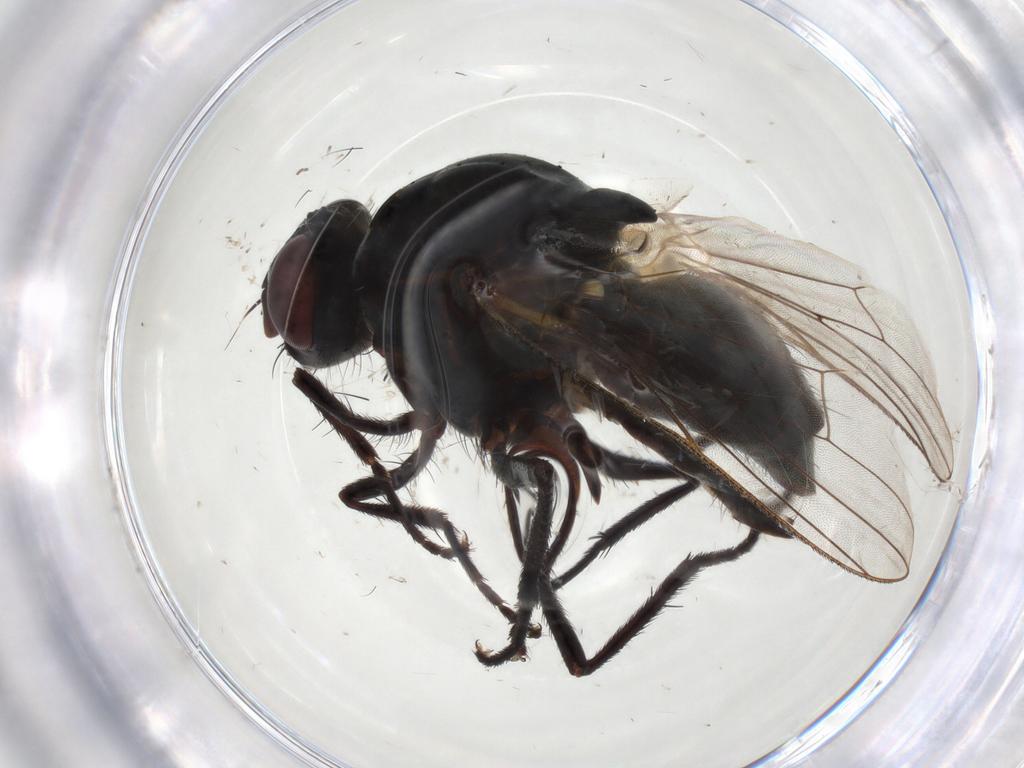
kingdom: Animalia
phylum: Arthropoda
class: Insecta
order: Diptera
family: Anthomyiidae
